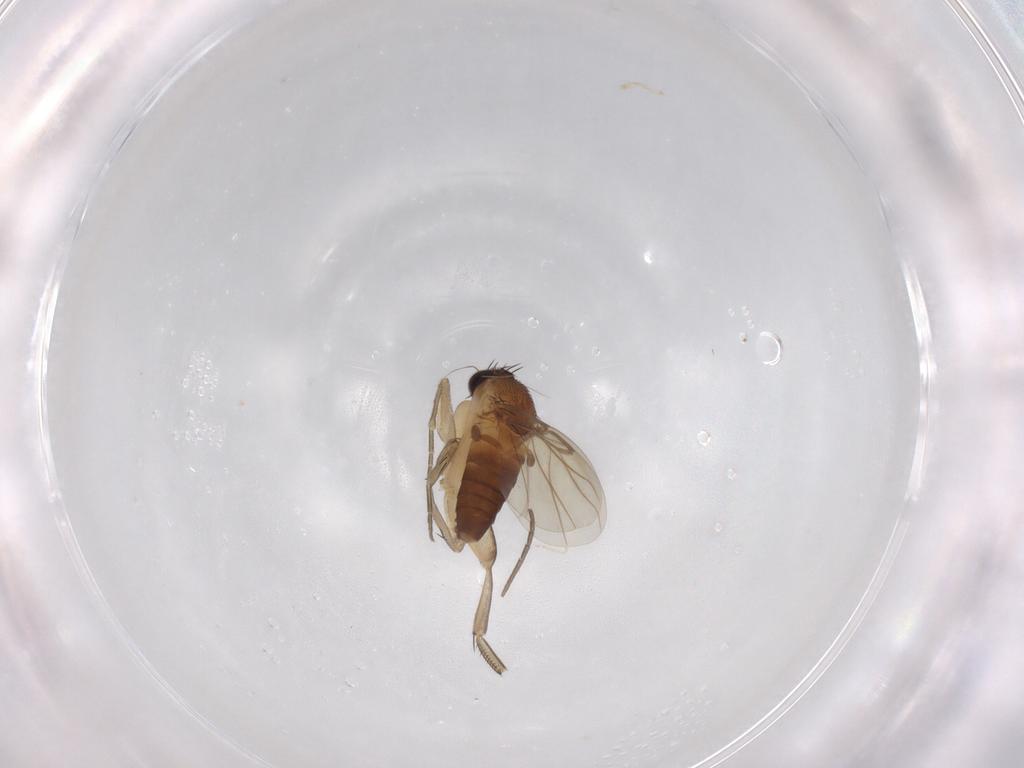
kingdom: Animalia
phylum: Arthropoda
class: Insecta
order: Diptera
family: Phoridae
